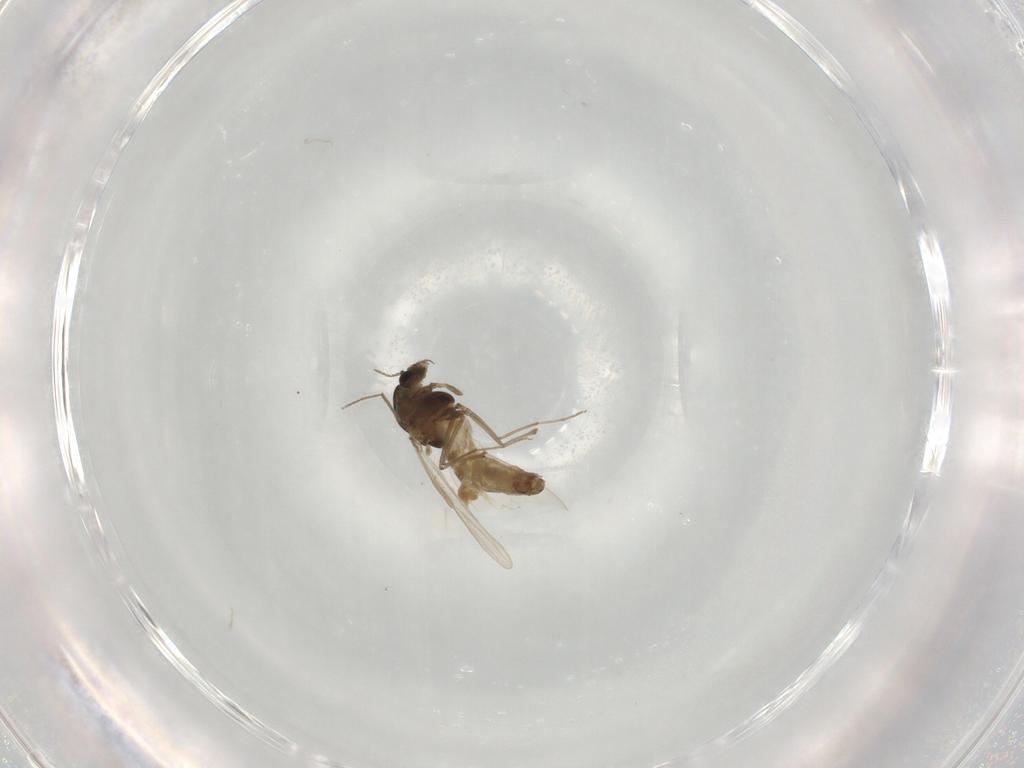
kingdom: Animalia
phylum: Arthropoda
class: Insecta
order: Diptera
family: Chironomidae
